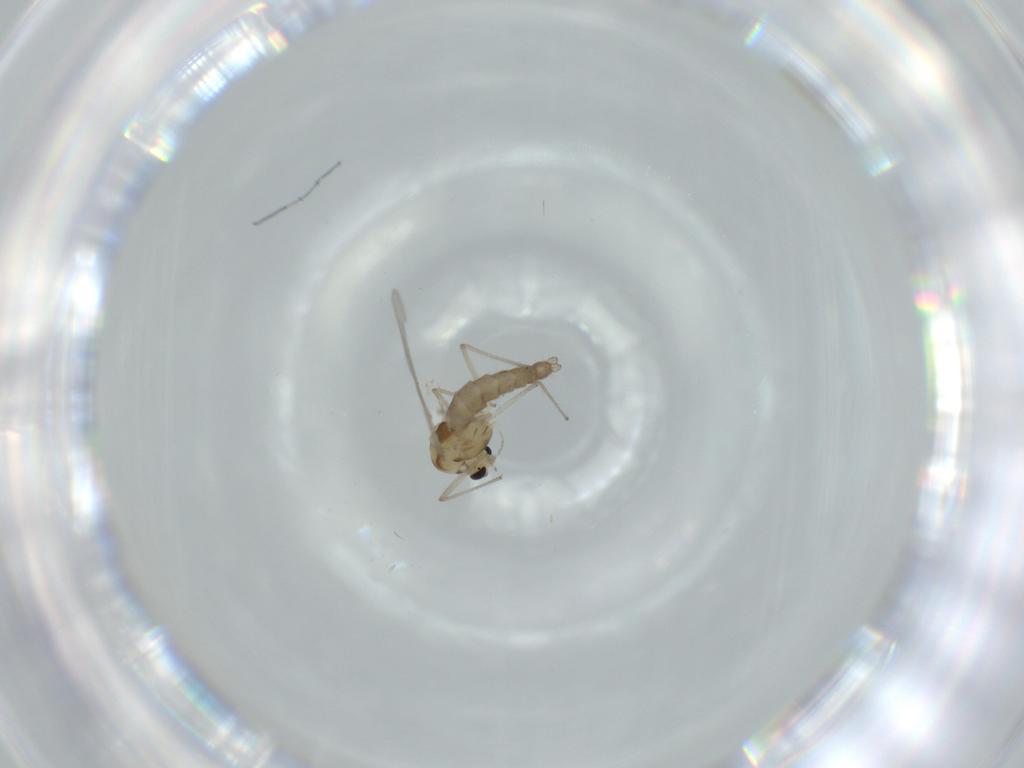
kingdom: Animalia
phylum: Arthropoda
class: Insecta
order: Diptera
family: Chironomidae
